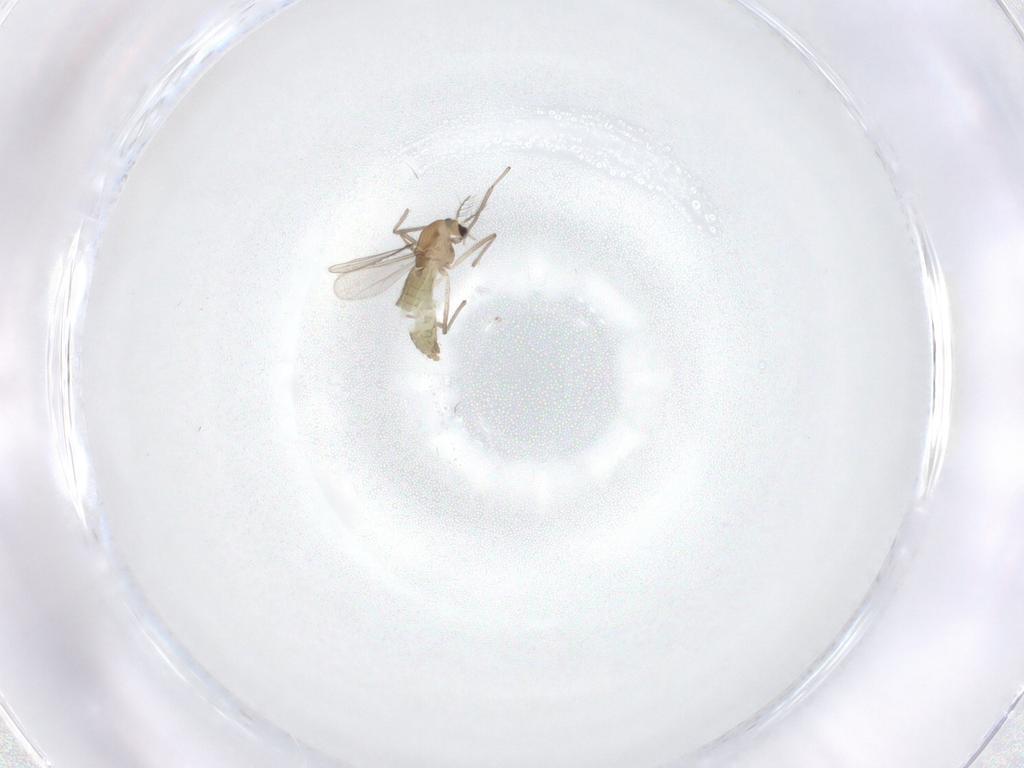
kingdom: Animalia
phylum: Arthropoda
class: Insecta
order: Diptera
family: Chironomidae
